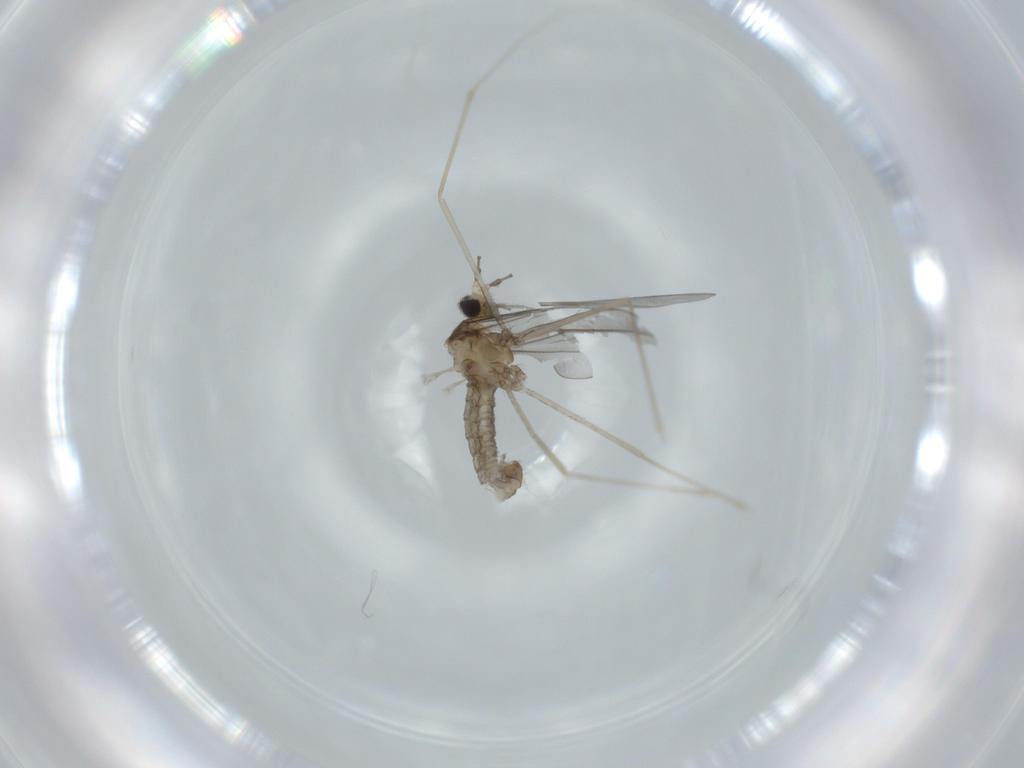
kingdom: Animalia
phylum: Arthropoda
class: Insecta
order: Diptera
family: Cecidomyiidae
